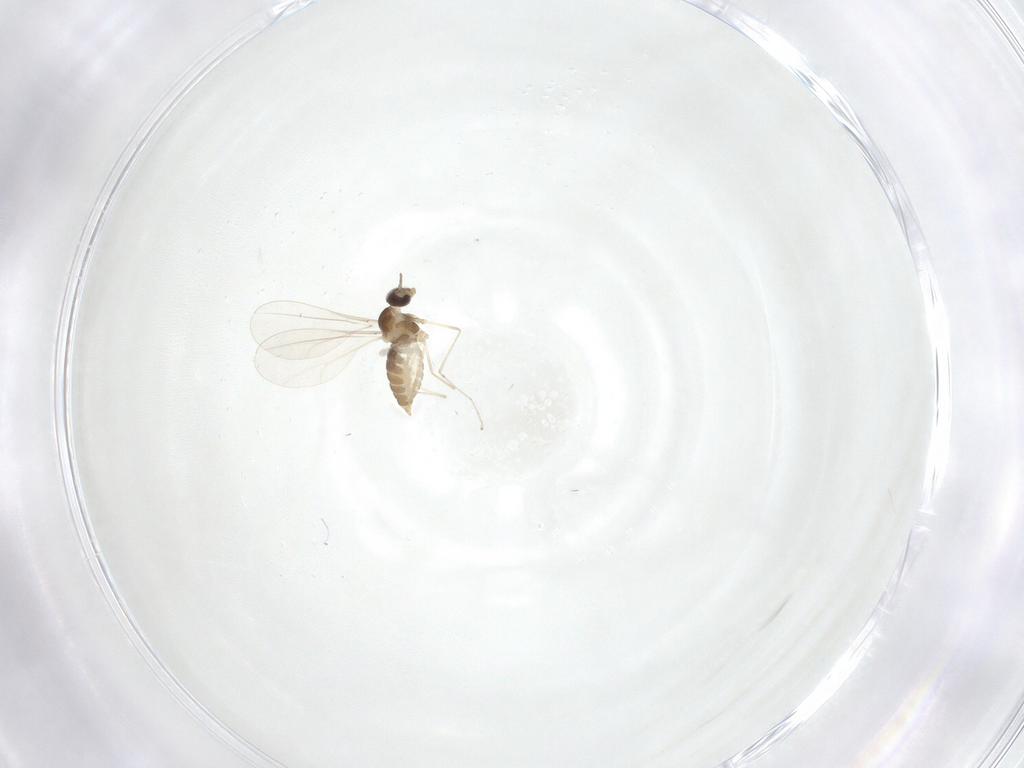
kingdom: Animalia
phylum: Arthropoda
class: Insecta
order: Diptera
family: Cecidomyiidae
